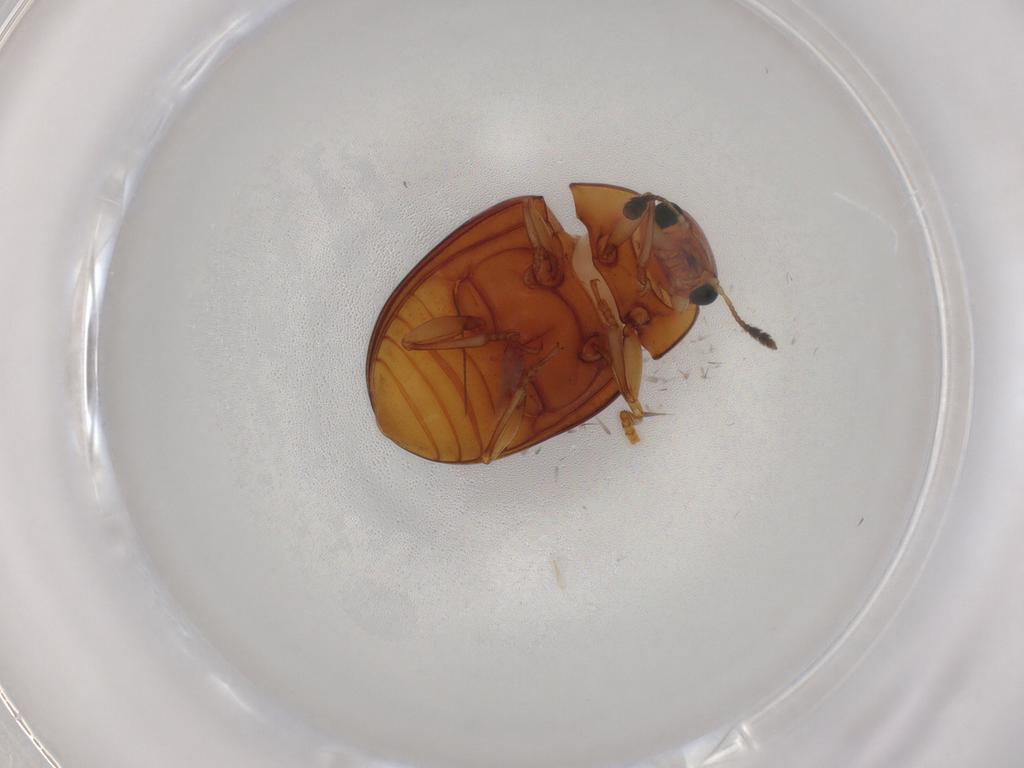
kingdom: Animalia
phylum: Arthropoda
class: Insecta
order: Coleoptera
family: Erotylidae
